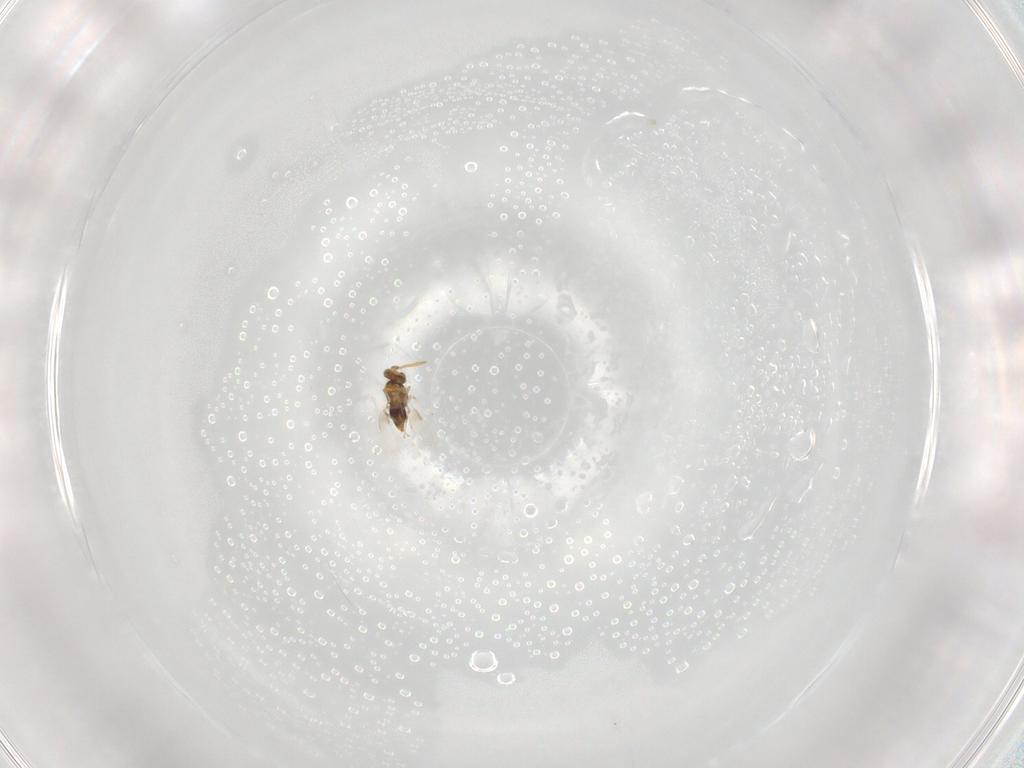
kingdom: Animalia
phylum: Arthropoda
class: Insecta
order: Hymenoptera
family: Aphelinidae
